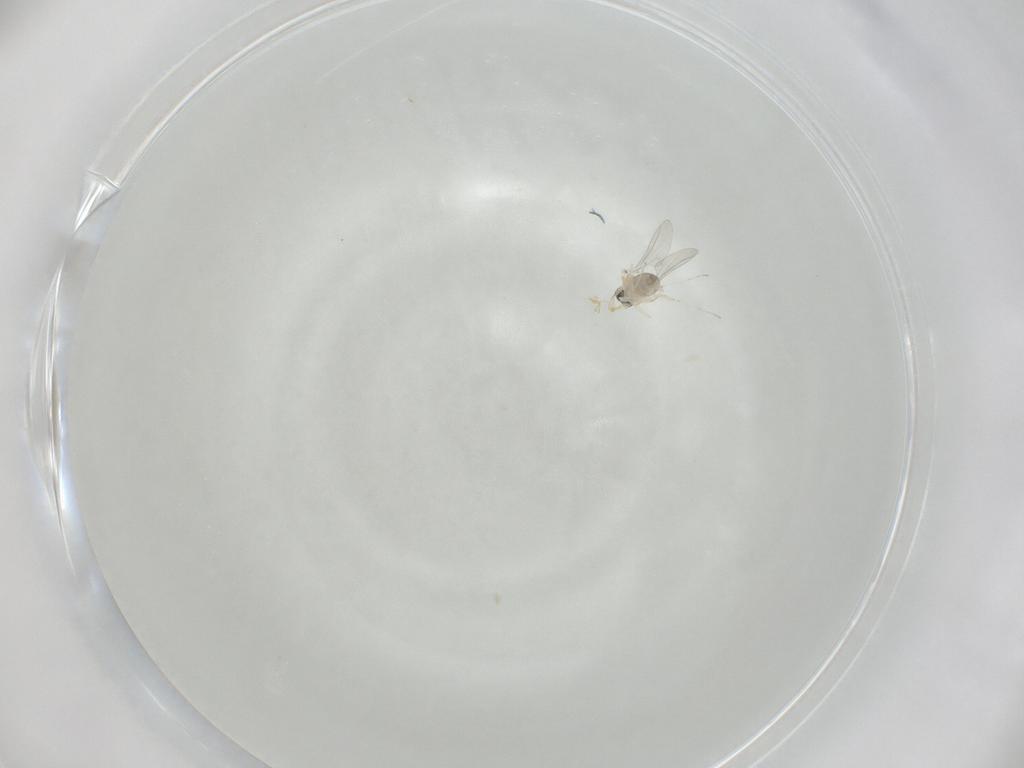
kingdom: Animalia
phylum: Arthropoda
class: Insecta
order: Diptera
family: Cecidomyiidae
